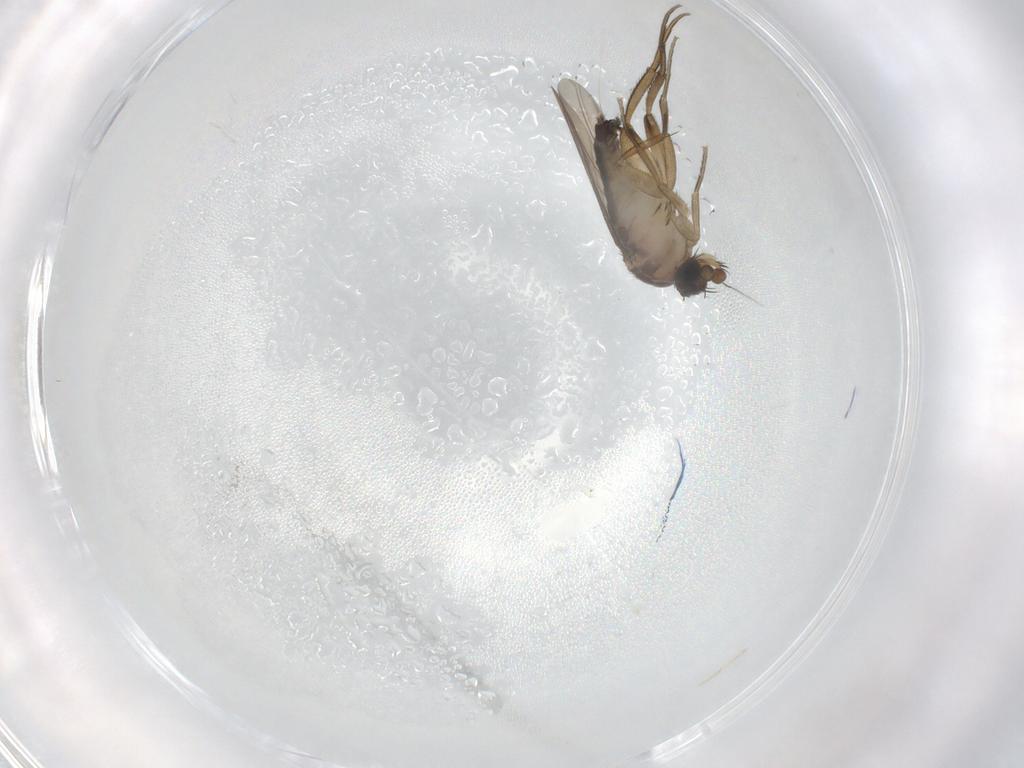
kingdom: Animalia
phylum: Arthropoda
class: Insecta
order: Diptera
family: Phoridae
